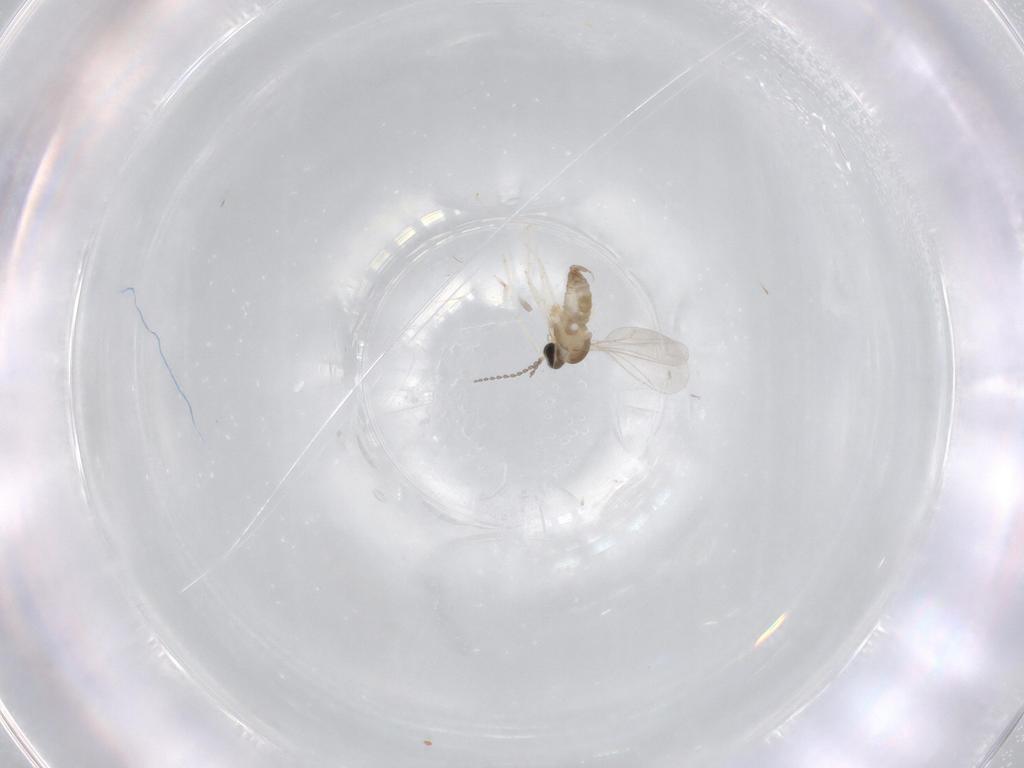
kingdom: Animalia
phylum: Arthropoda
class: Insecta
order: Diptera
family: Cecidomyiidae
